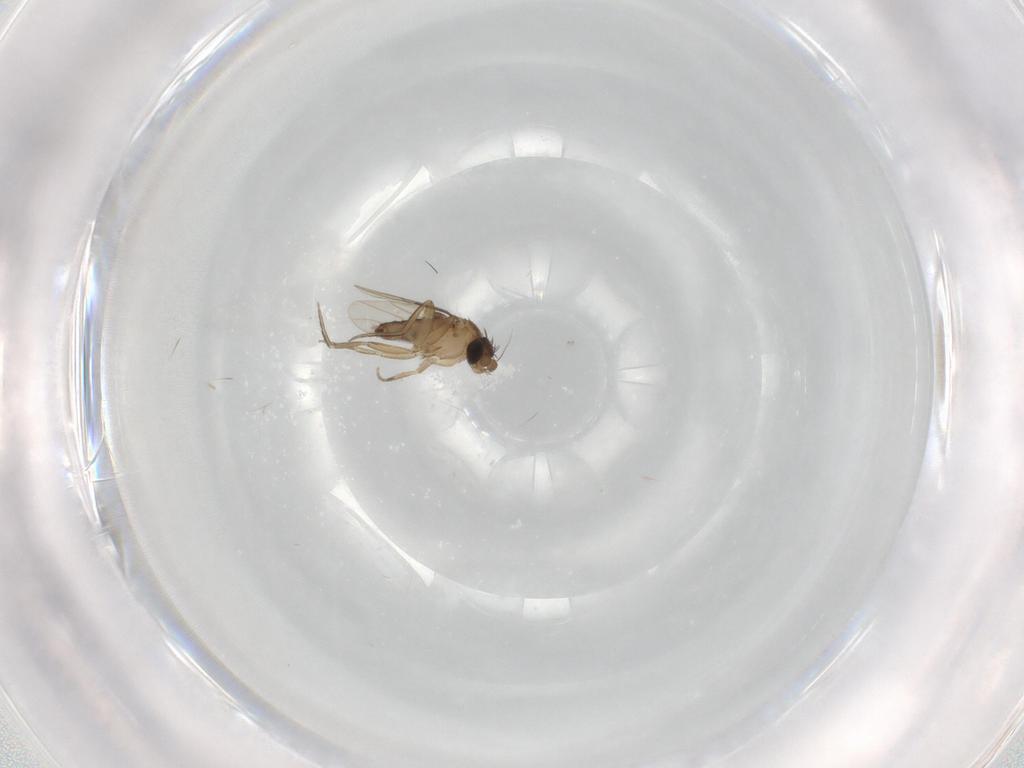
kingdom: Animalia
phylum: Arthropoda
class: Insecta
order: Diptera
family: Phoridae
